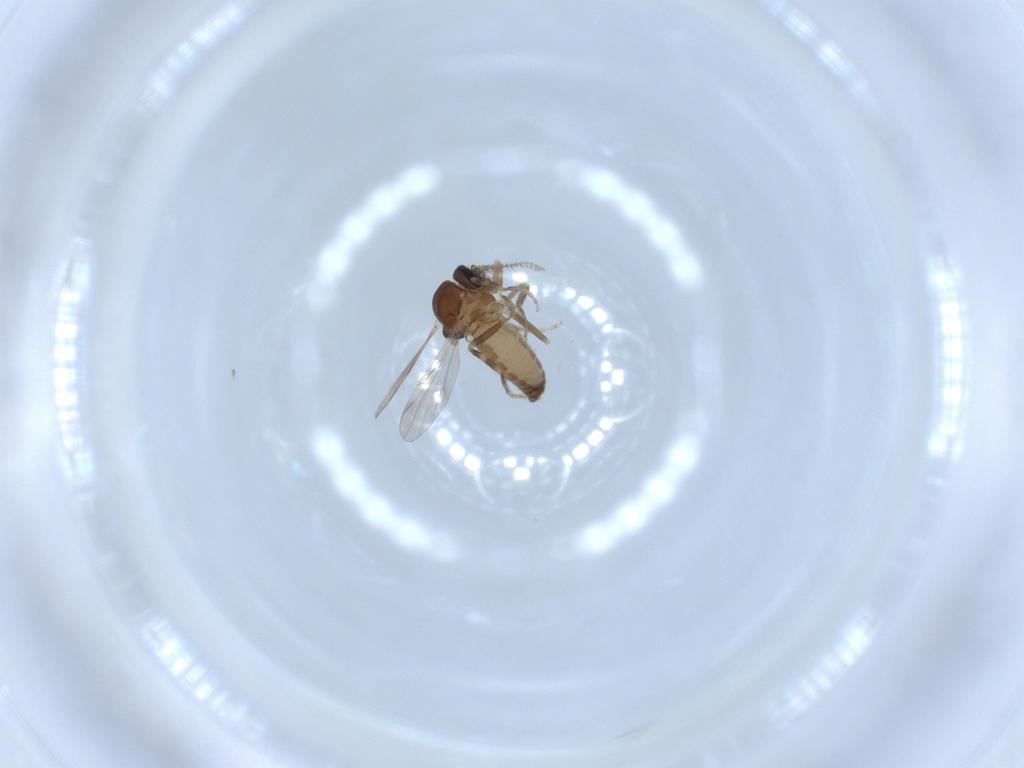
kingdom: Animalia
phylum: Arthropoda
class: Insecta
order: Diptera
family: Ceratopogonidae
